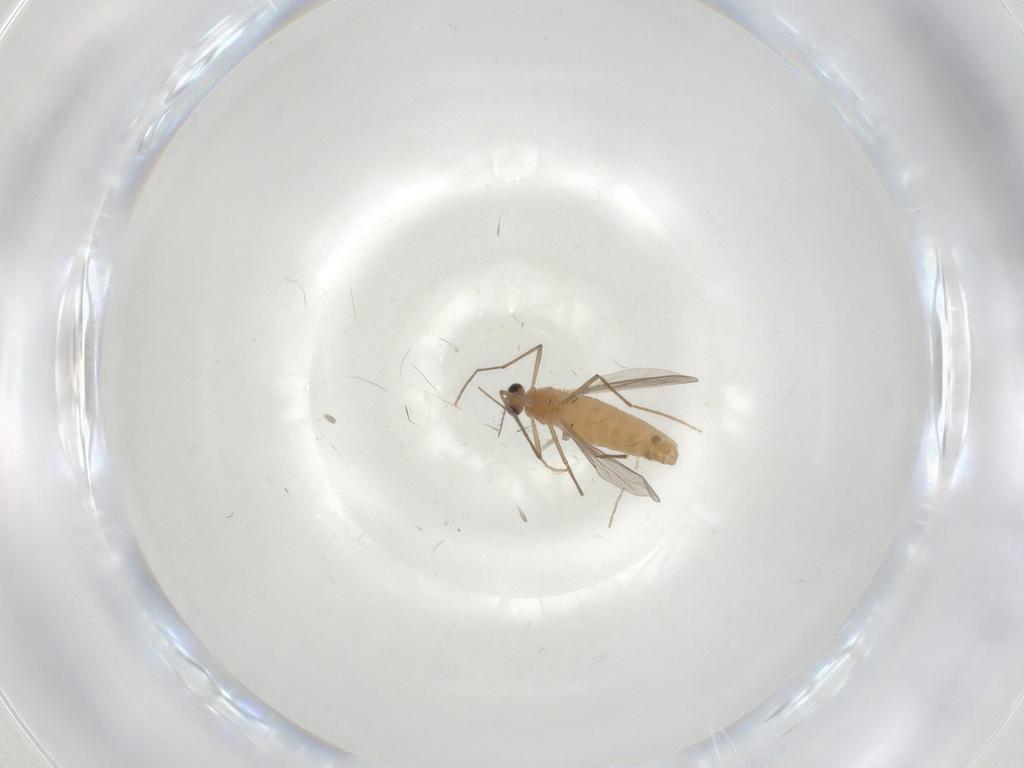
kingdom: Animalia
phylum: Arthropoda
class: Insecta
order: Diptera
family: Chironomidae
